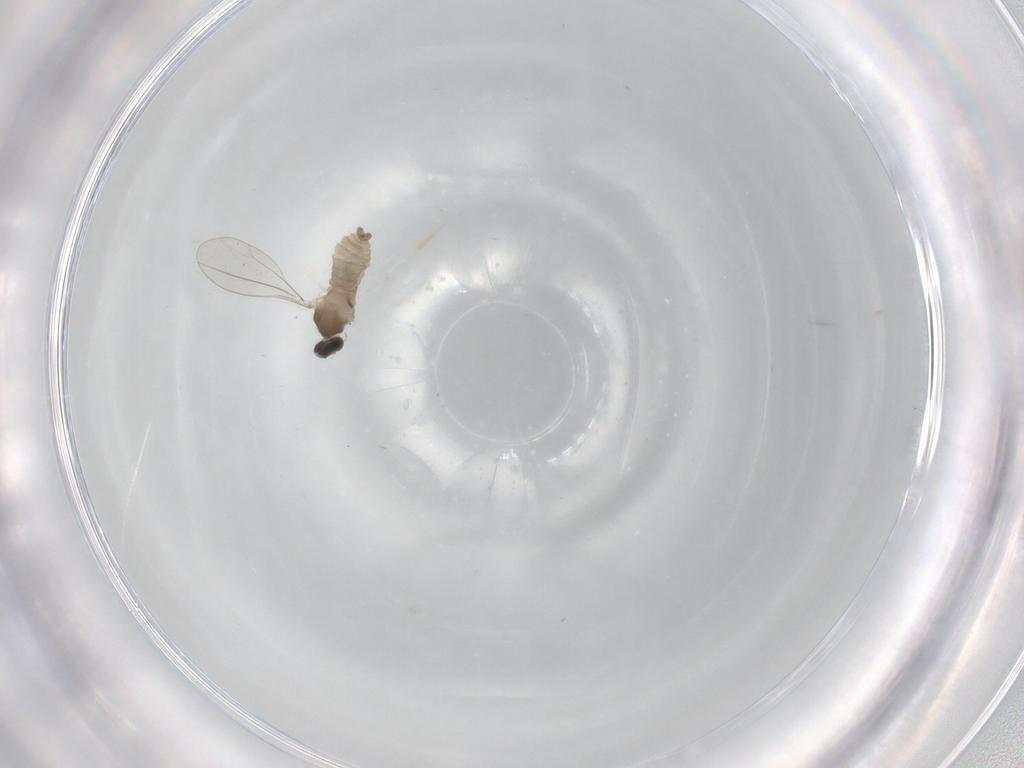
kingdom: Animalia
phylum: Arthropoda
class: Insecta
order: Diptera
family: Cecidomyiidae
